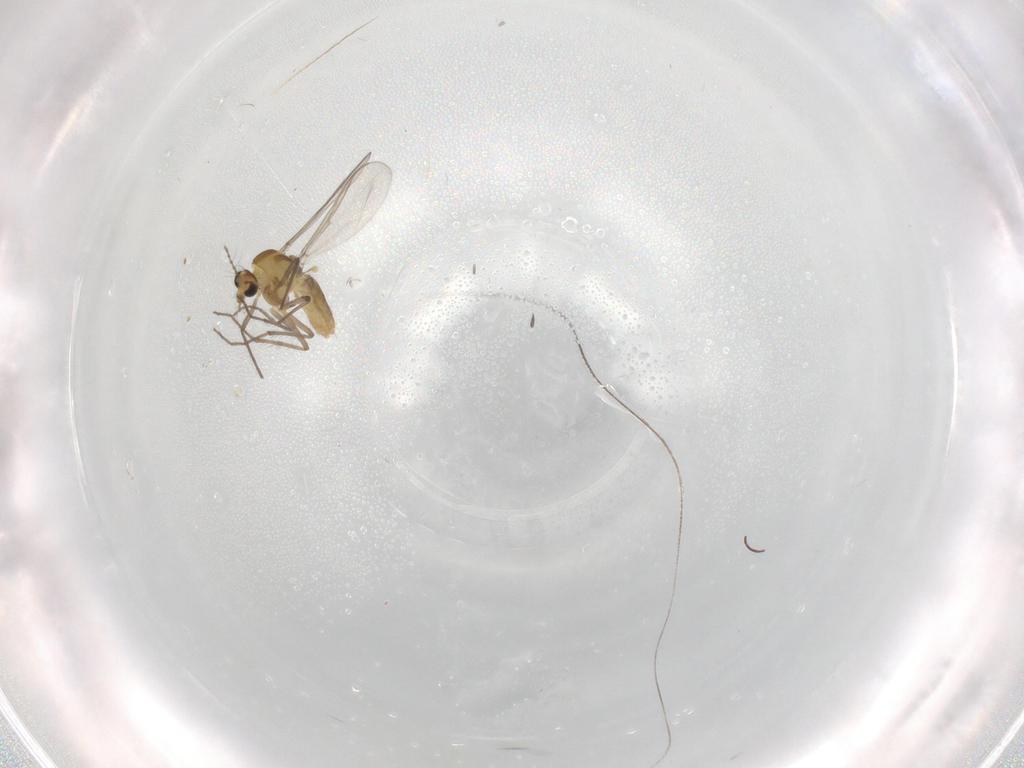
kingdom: Animalia
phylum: Arthropoda
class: Insecta
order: Diptera
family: Chironomidae
